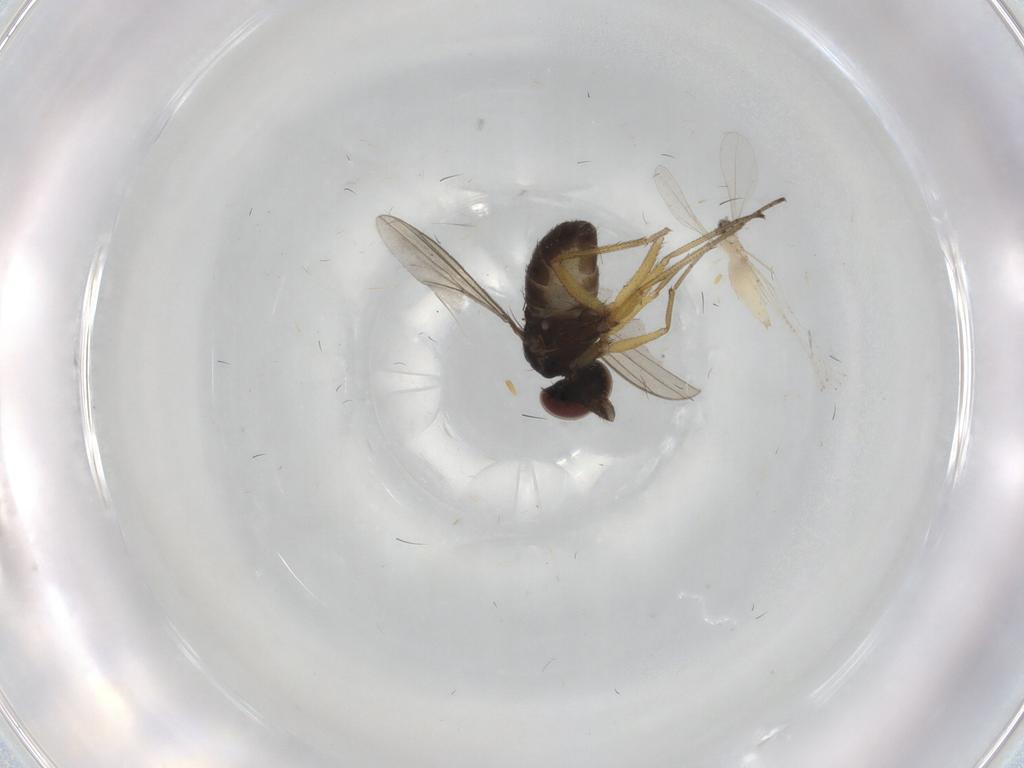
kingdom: Animalia
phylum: Arthropoda
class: Insecta
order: Diptera
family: Dolichopodidae
